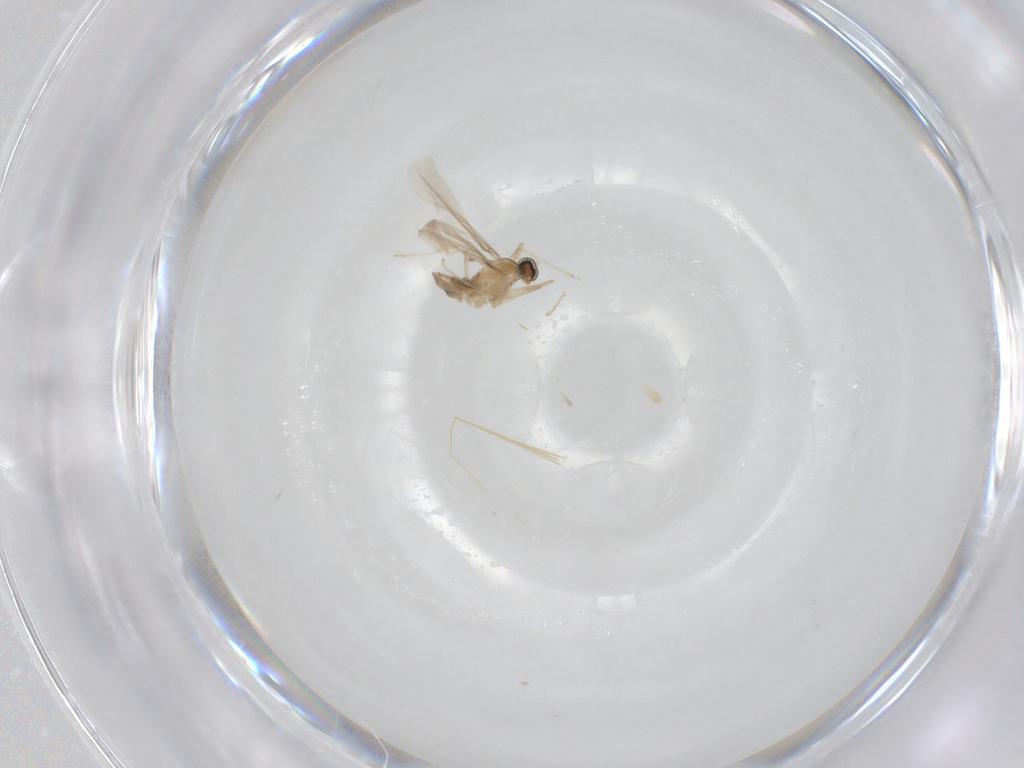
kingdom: Animalia
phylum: Arthropoda
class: Insecta
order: Diptera
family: Cecidomyiidae
